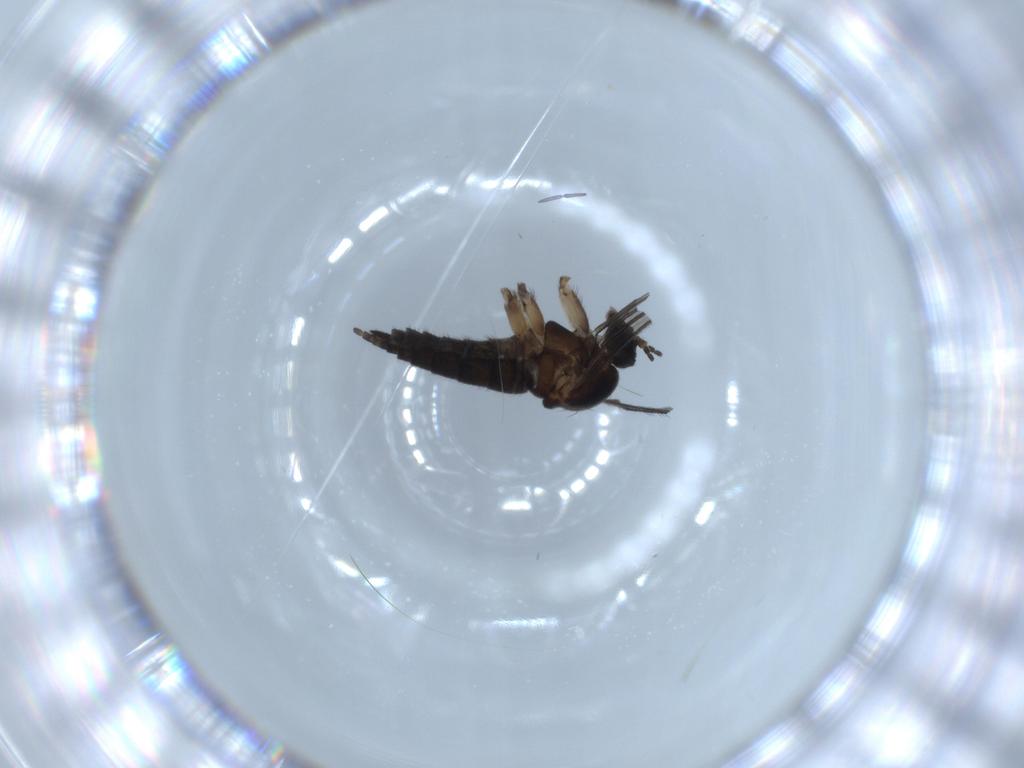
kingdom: Animalia
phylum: Arthropoda
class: Insecta
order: Diptera
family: Sciaridae
